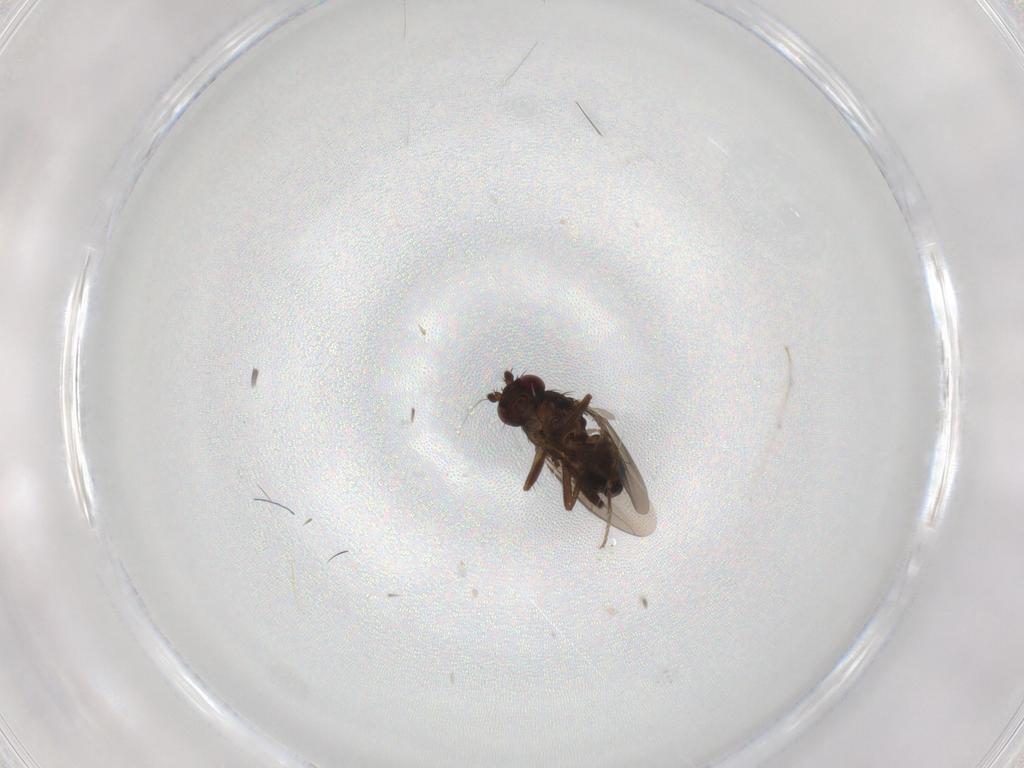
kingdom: Animalia
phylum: Arthropoda
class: Insecta
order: Diptera
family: Sphaeroceridae
